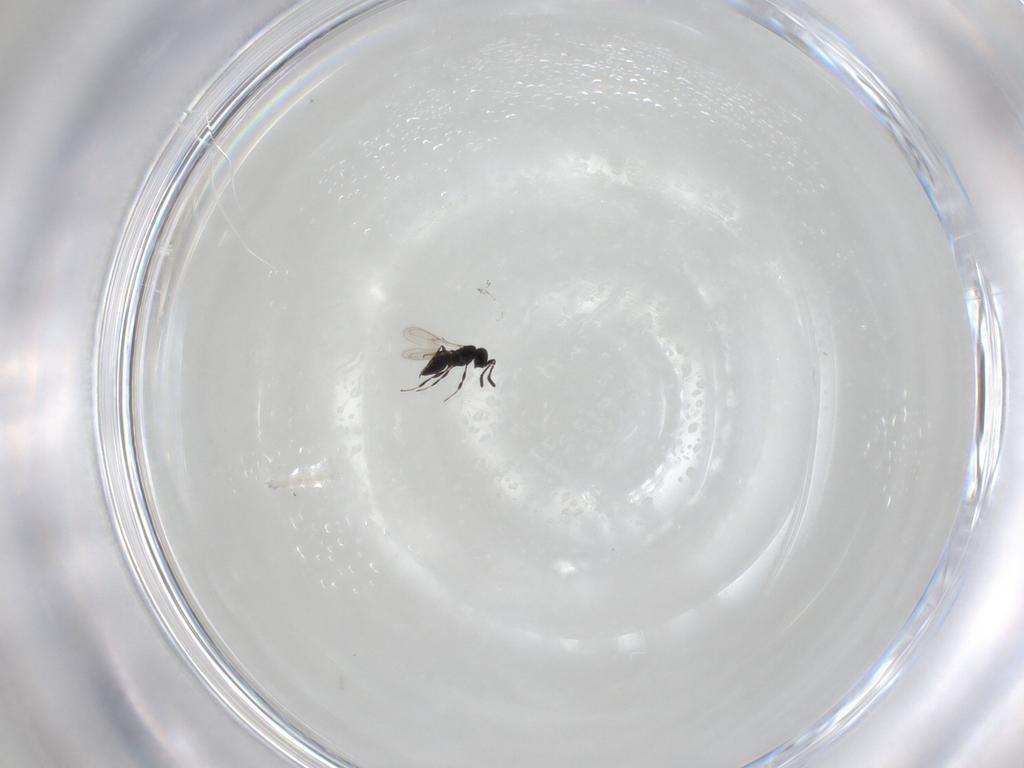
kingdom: Animalia
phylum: Arthropoda
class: Insecta
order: Hymenoptera
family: Scelionidae
